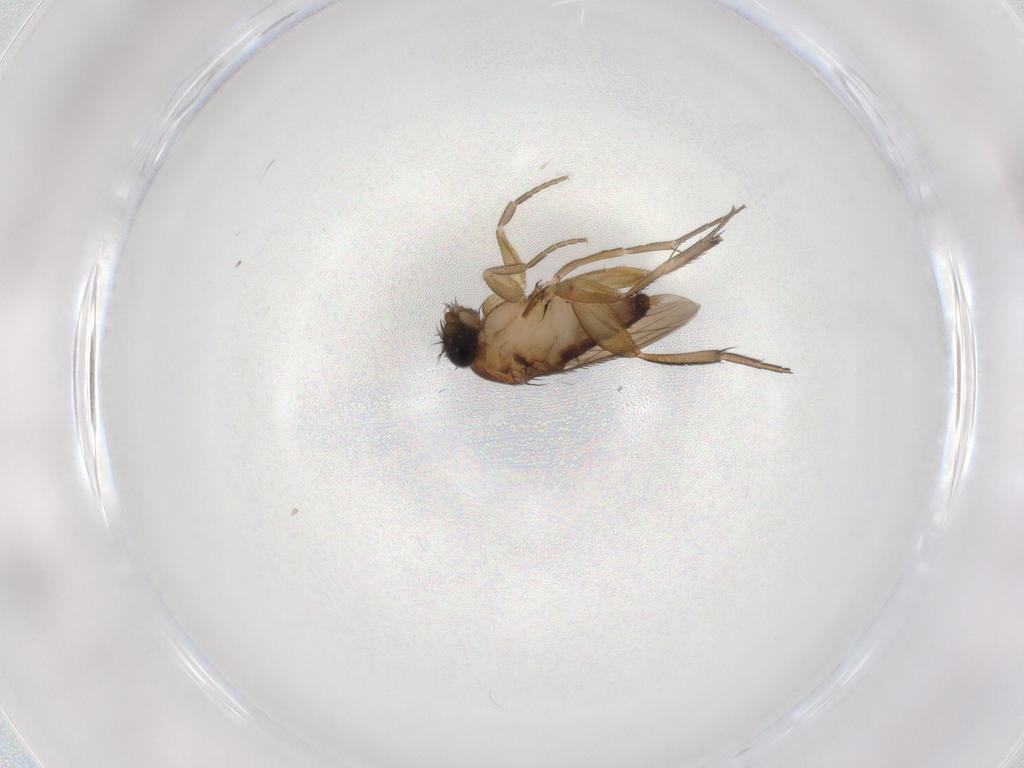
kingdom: Animalia
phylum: Arthropoda
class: Insecta
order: Diptera
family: Phoridae
